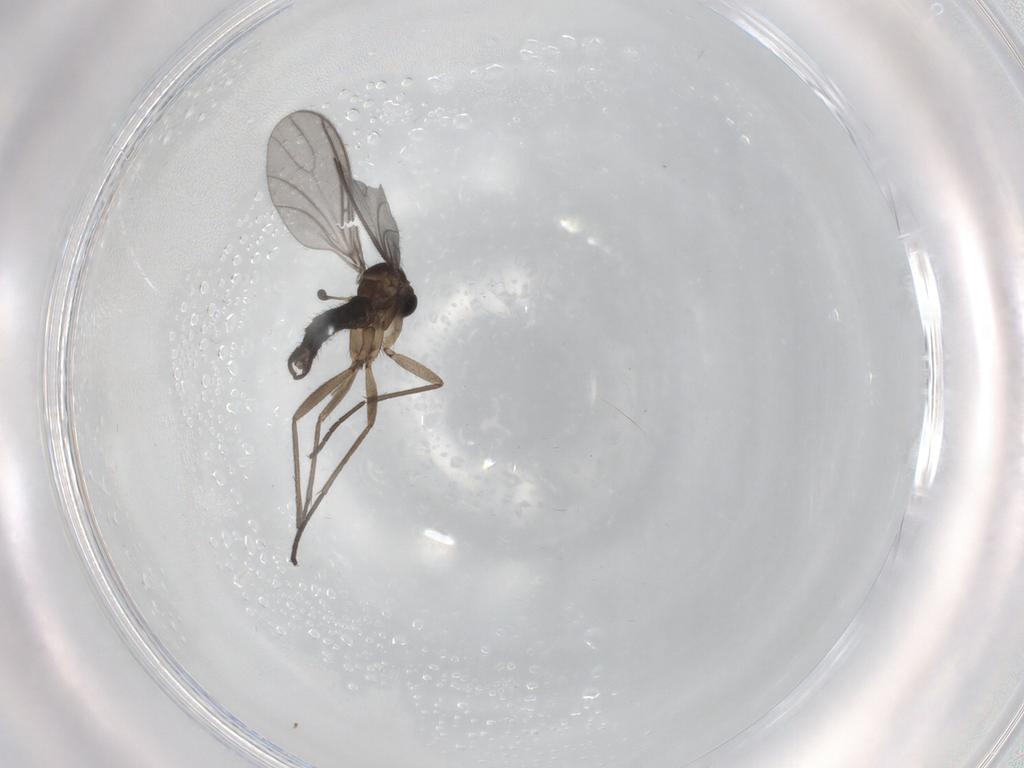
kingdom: Animalia
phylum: Arthropoda
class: Insecta
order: Diptera
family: Sciaridae
